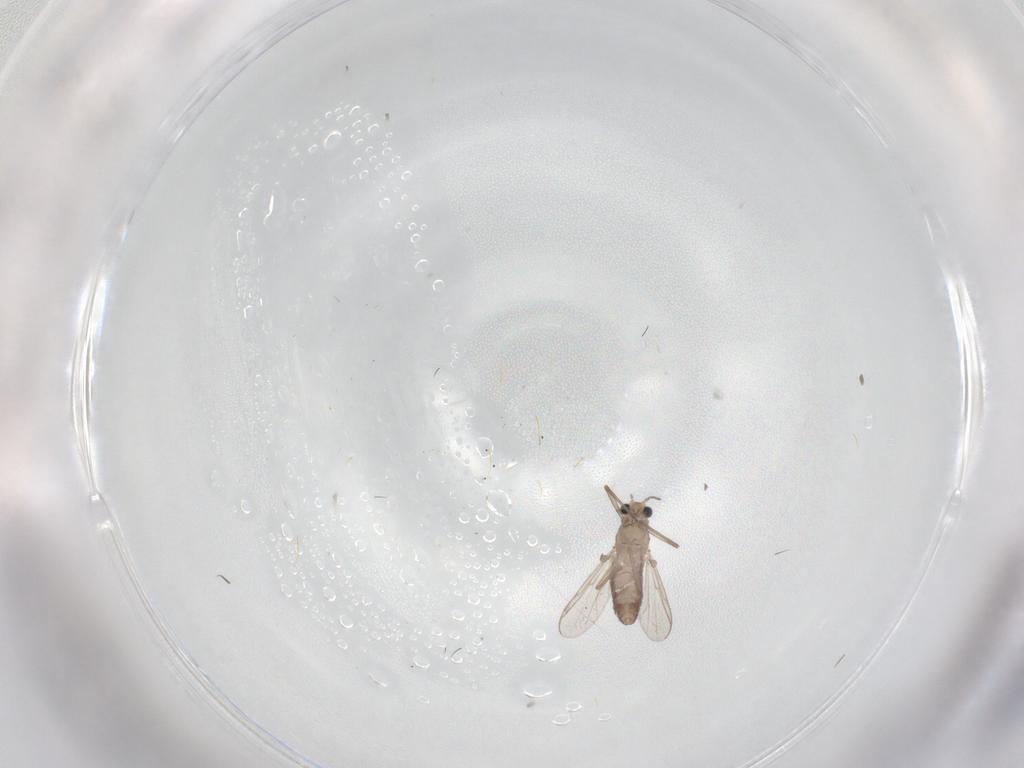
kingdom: Animalia
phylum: Arthropoda
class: Insecta
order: Diptera
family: Chironomidae
